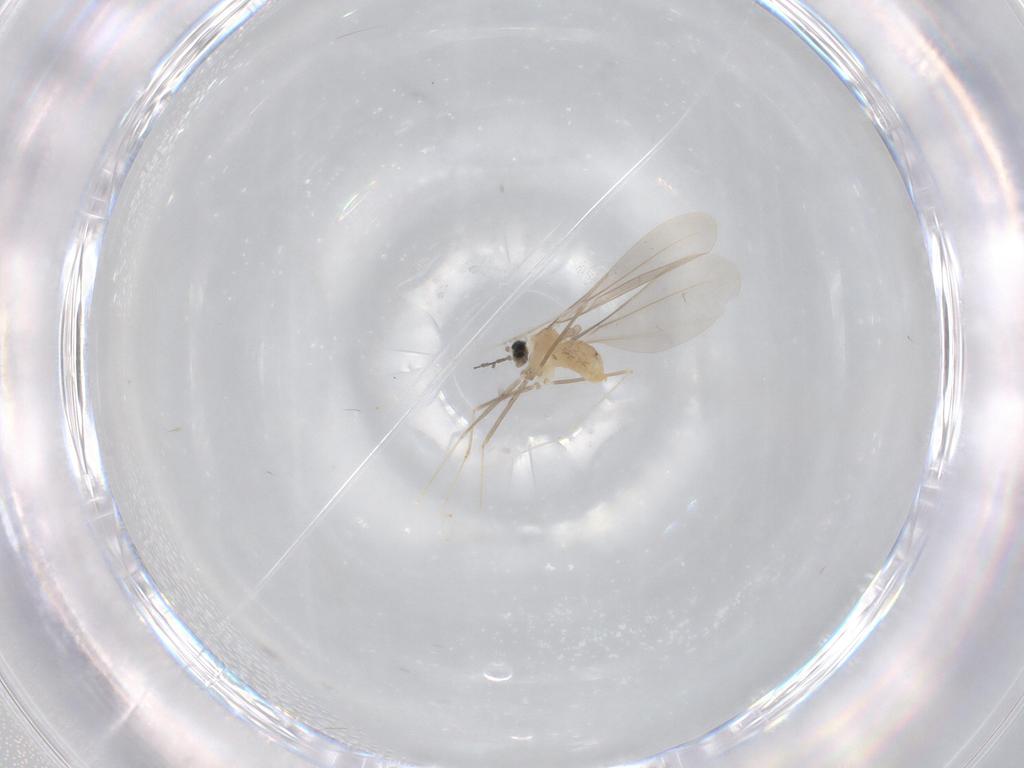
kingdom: Animalia
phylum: Arthropoda
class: Insecta
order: Diptera
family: Cecidomyiidae
